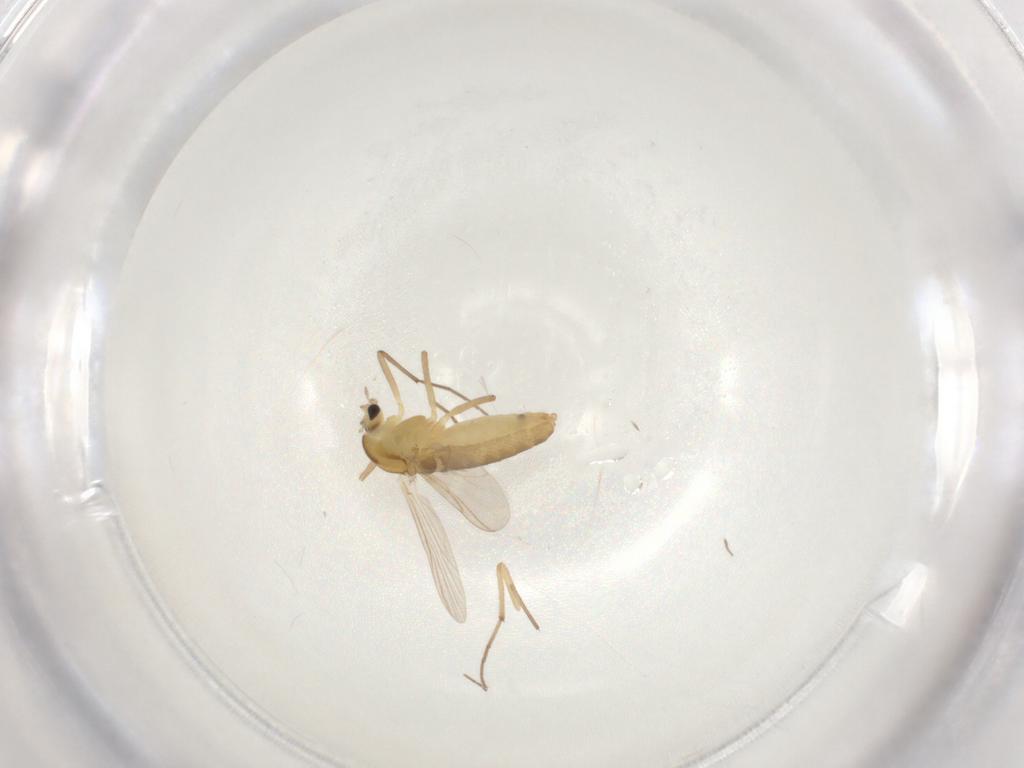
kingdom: Animalia
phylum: Arthropoda
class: Insecta
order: Diptera
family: Chironomidae
